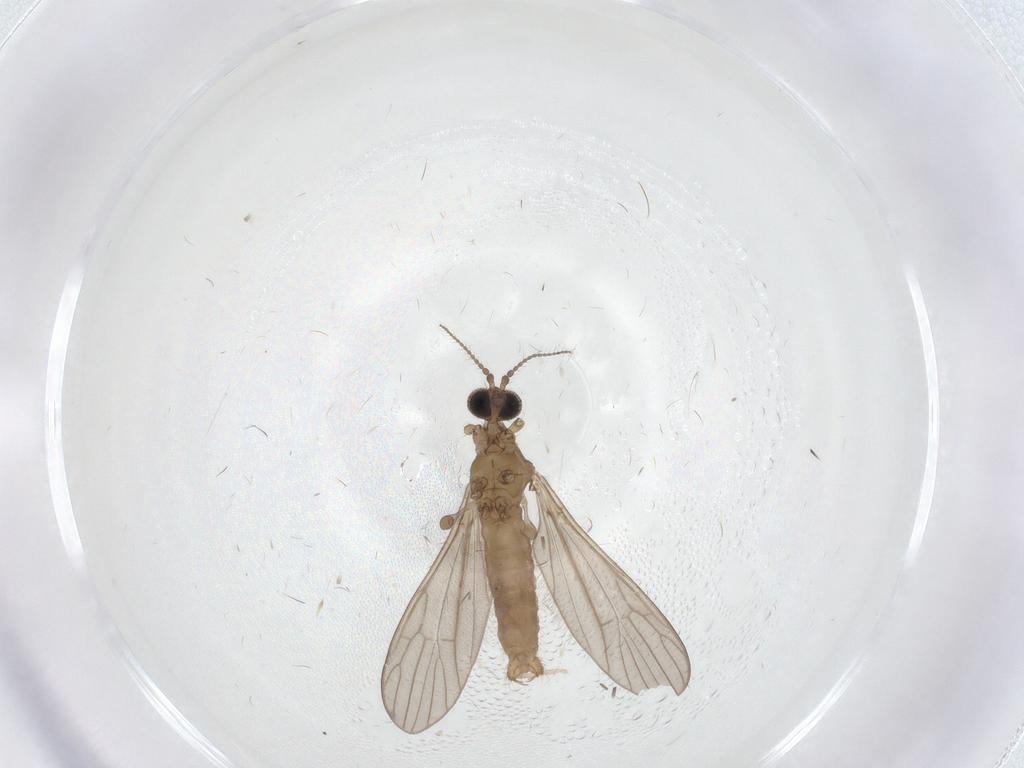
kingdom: Animalia
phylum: Arthropoda
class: Insecta
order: Diptera
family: Limoniidae
